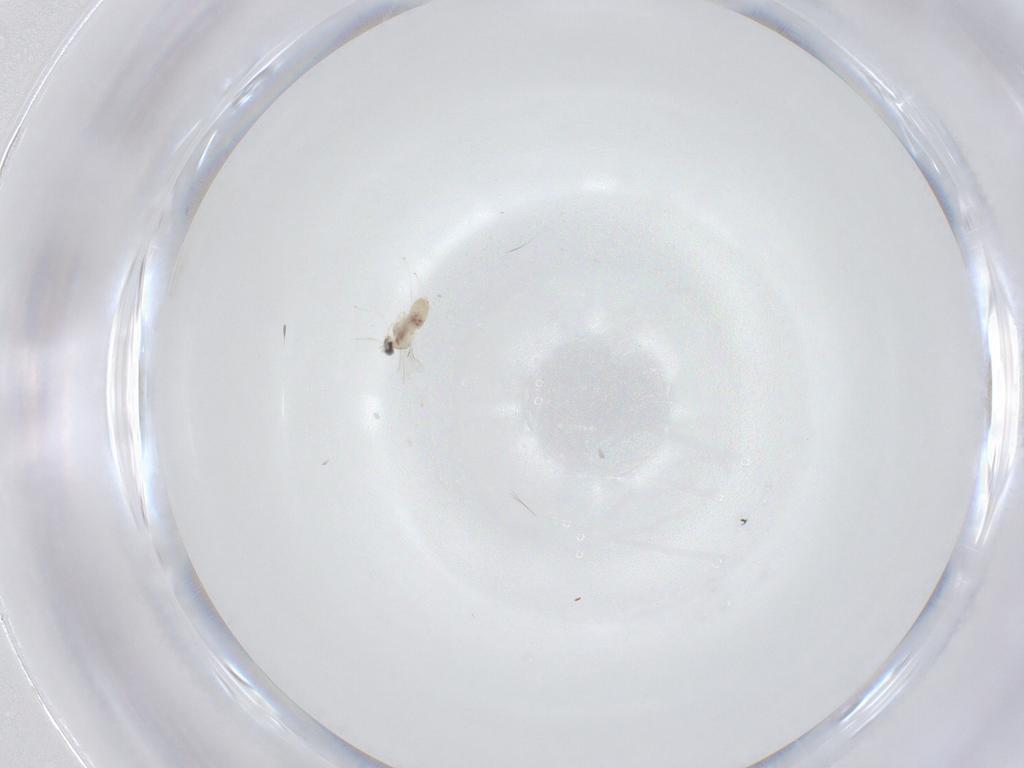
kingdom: Animalia
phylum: Arthropoda
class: Insecta
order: Diptera
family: Cecidomyiidae
